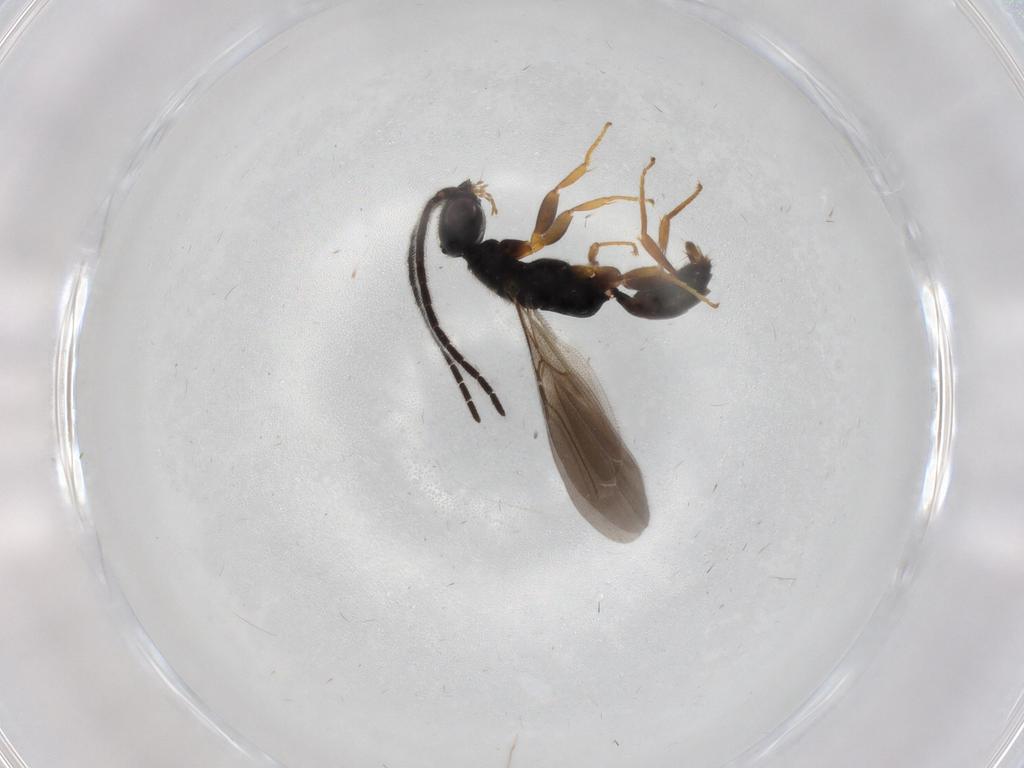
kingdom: Animalia
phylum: Arthropoda
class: Insecta
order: Hymenoptera
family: Bethylidae
